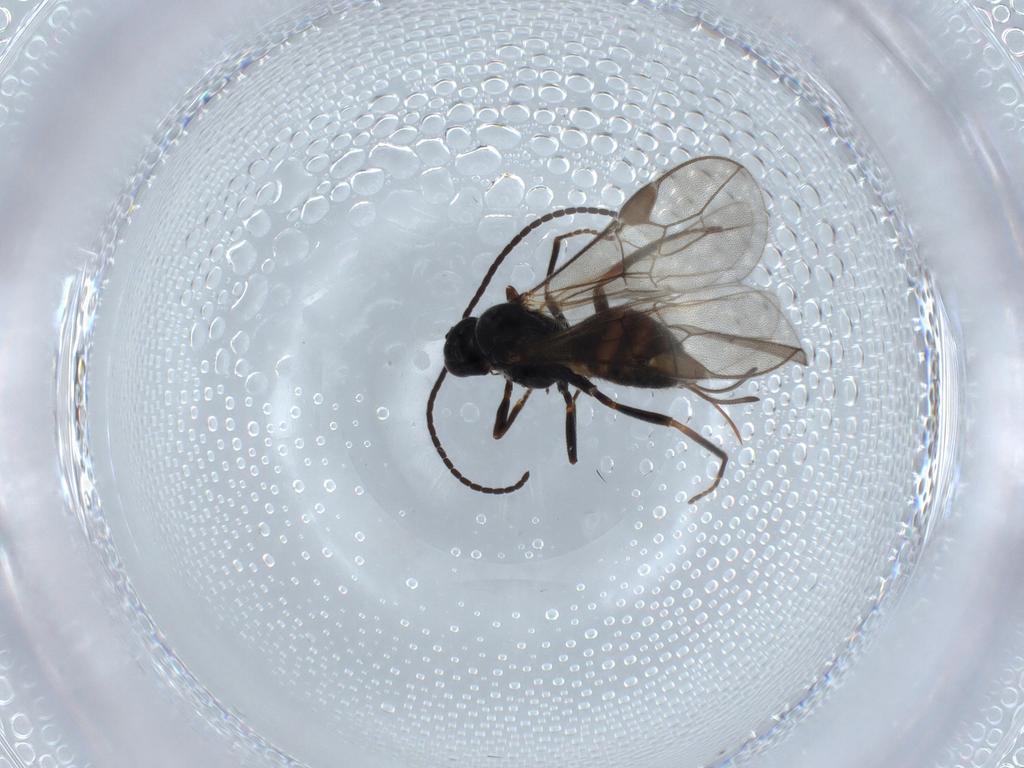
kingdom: Animalia
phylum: Arthropoda
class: Insecta
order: Hymenoptera
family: Braconidae
